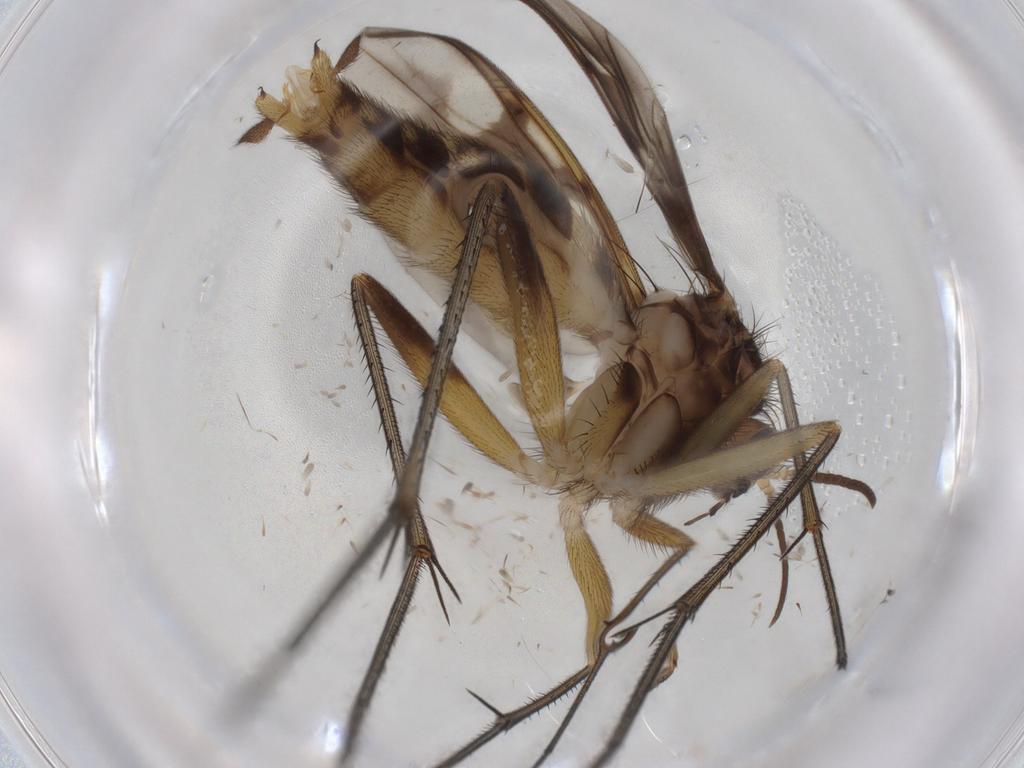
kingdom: Animalia
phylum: Arthropoda
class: Insecta
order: Diptera
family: Mycetophilidae
